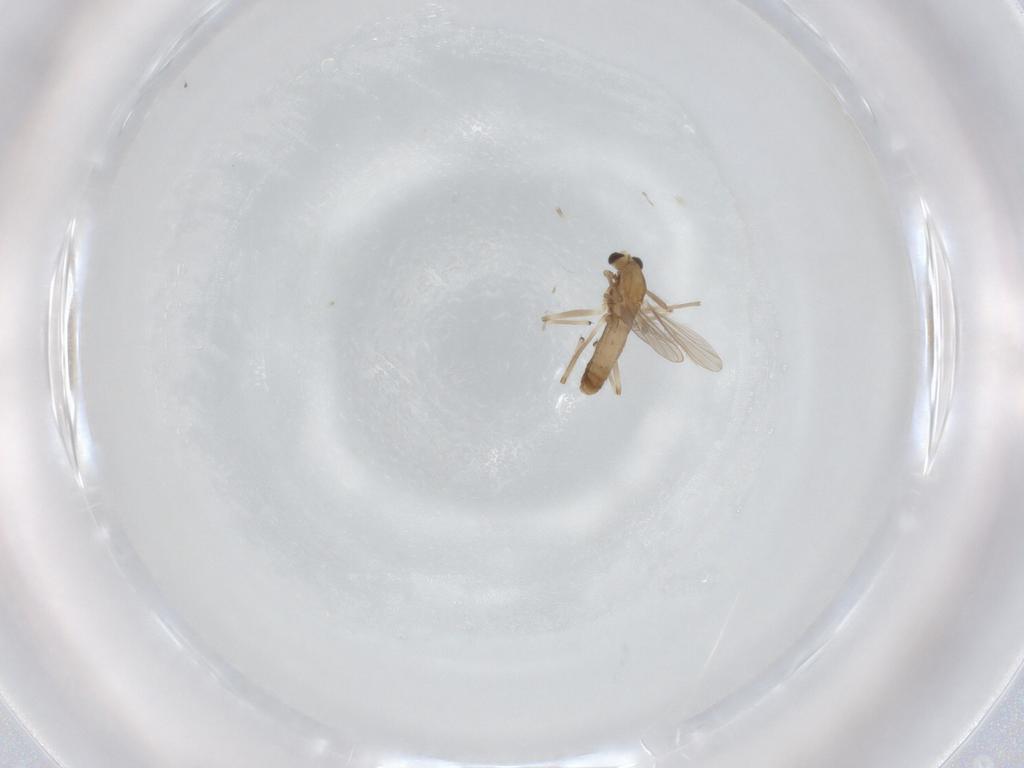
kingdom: Animalia
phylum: Arthropoda
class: Insecta
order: Diptera
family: Chironomidae
